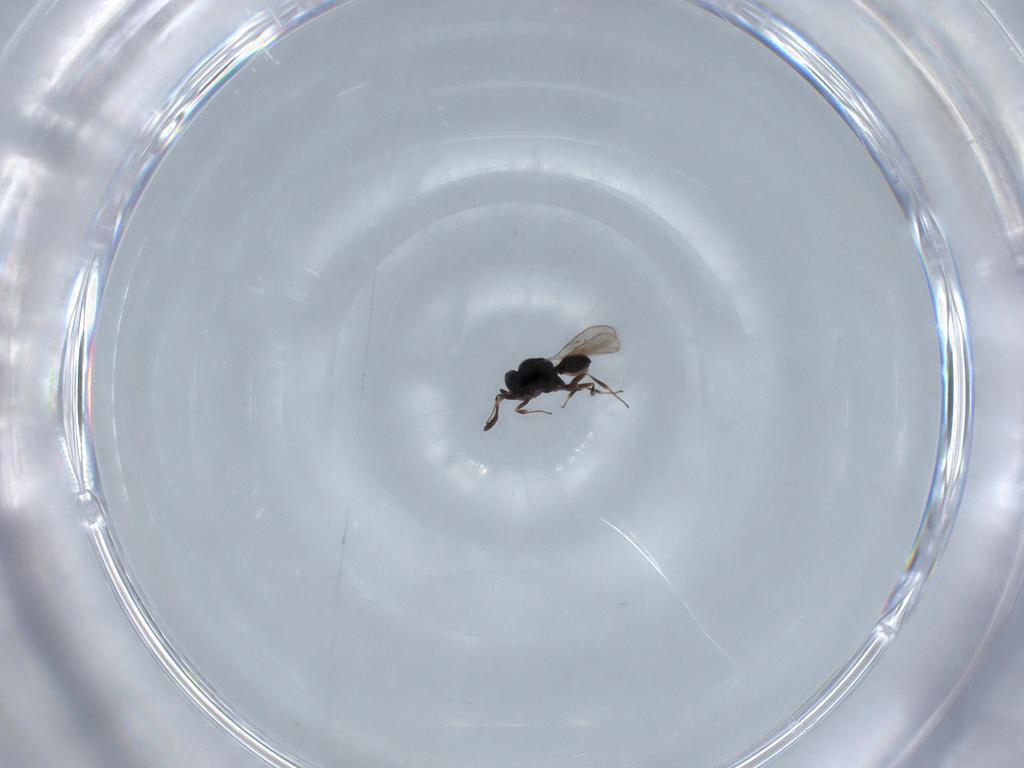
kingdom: Animalia
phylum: Arthropoda
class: Insecta
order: Hymenoptera
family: Scelionidae
